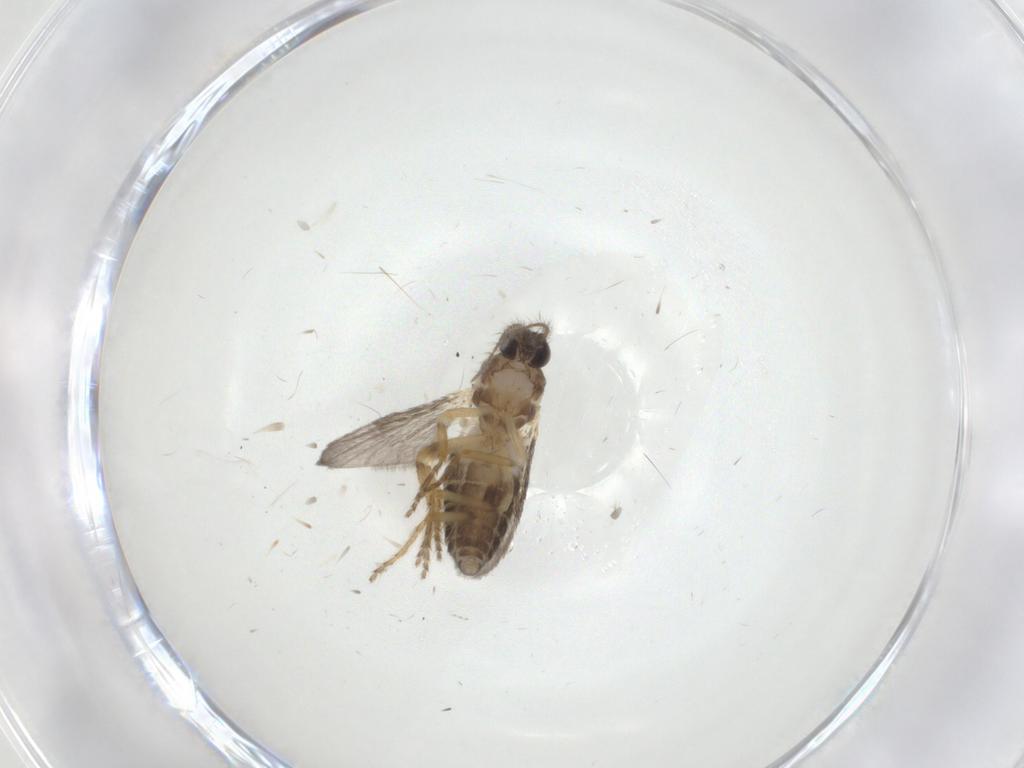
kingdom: Animalia
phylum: Arthropoda
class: Insecta
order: Diptera
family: Ceratopogonidae
